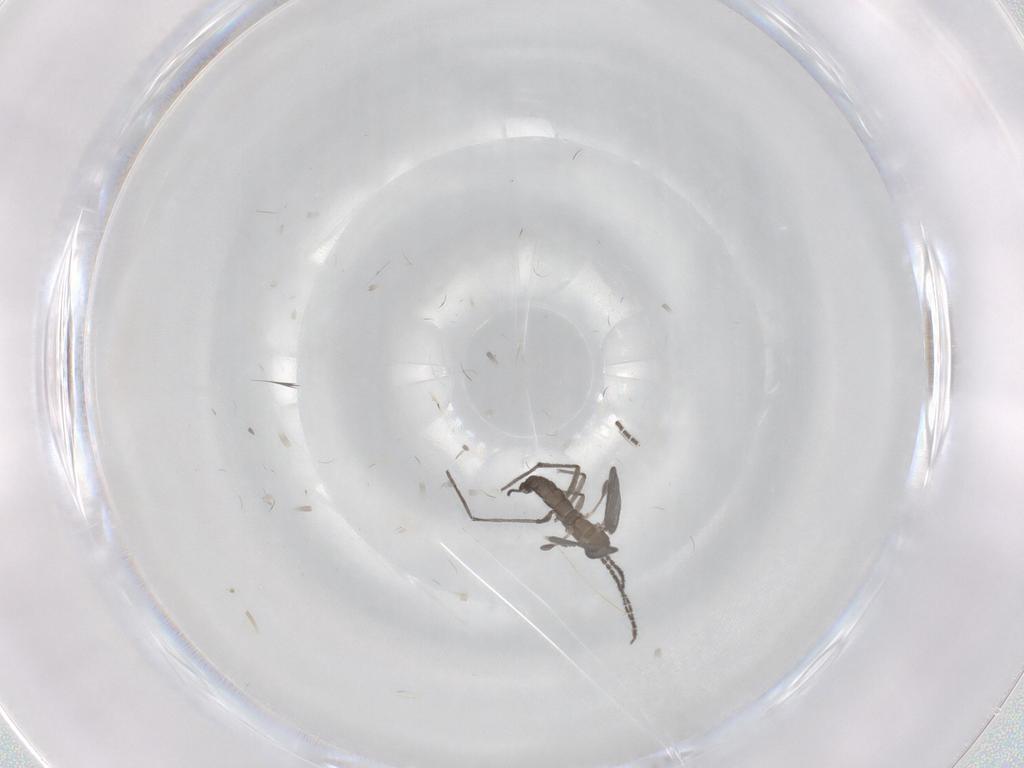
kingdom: Animalia
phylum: Arthropoda
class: Insecta
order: Diptera
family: Sciaridae
